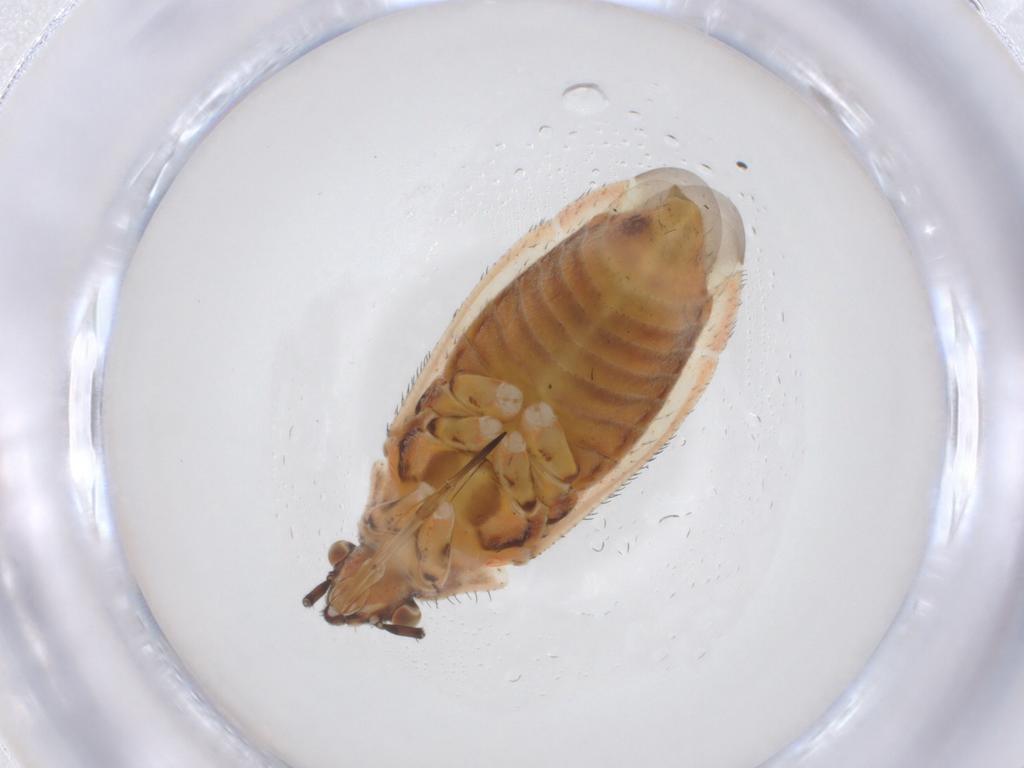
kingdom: Animalia
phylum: Arthropoda
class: Insecta
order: Hemiptera
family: Miridae
